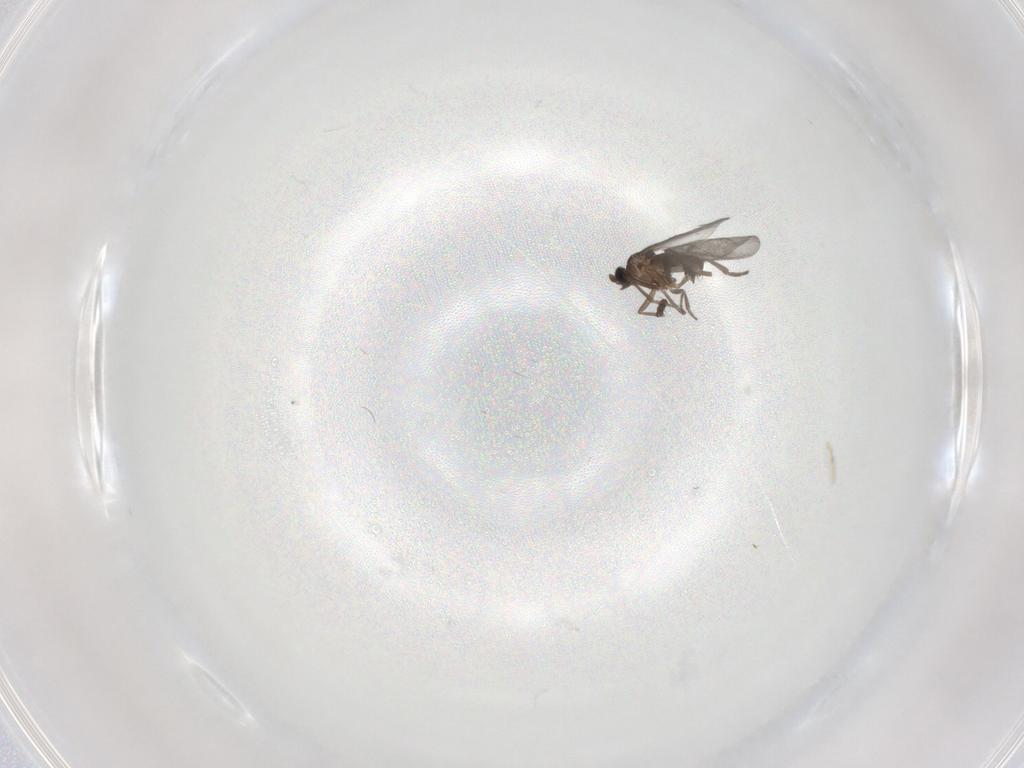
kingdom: Animalia
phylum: Arthropoda
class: Insecta
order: Diptera
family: Phoridae
